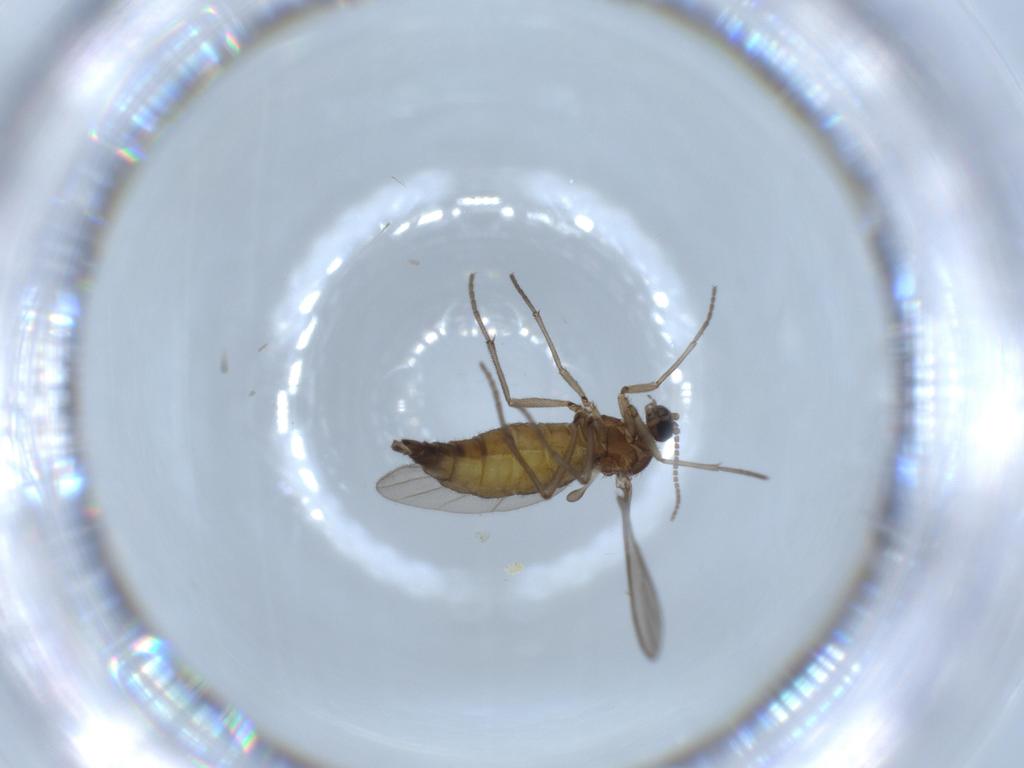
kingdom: Animalia
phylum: Arthropoda
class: Insecta
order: Diptera
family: Sciaridae
